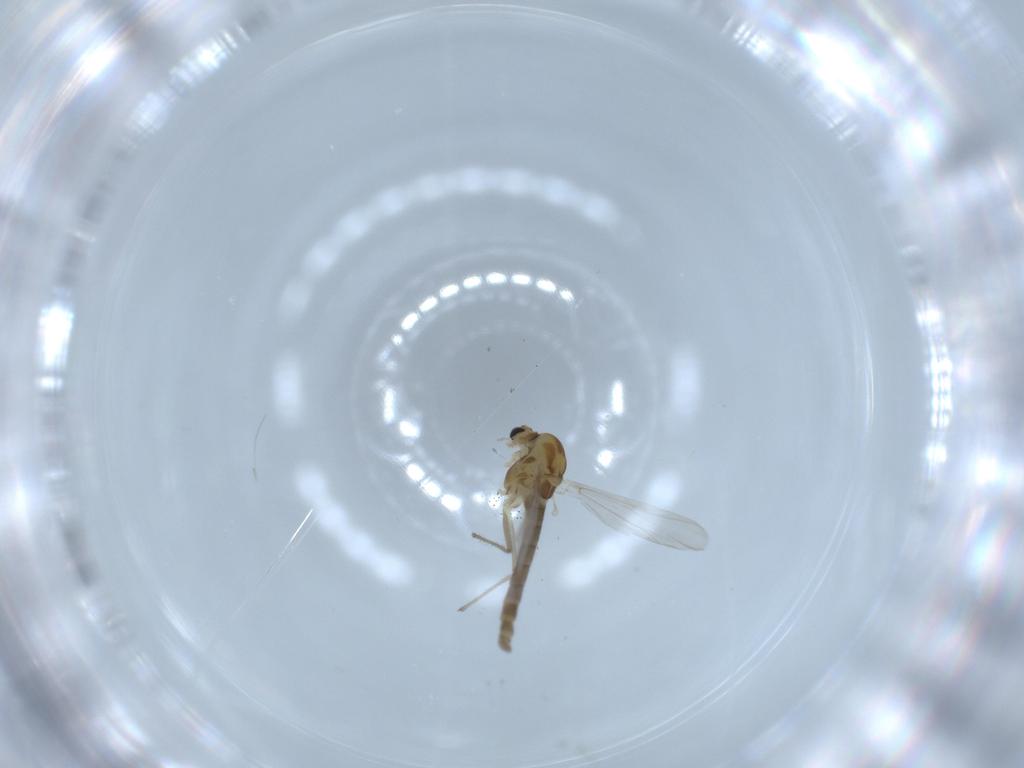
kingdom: Animalia
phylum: Arthropoda
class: Insecta
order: Diptera
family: Chironomidae
